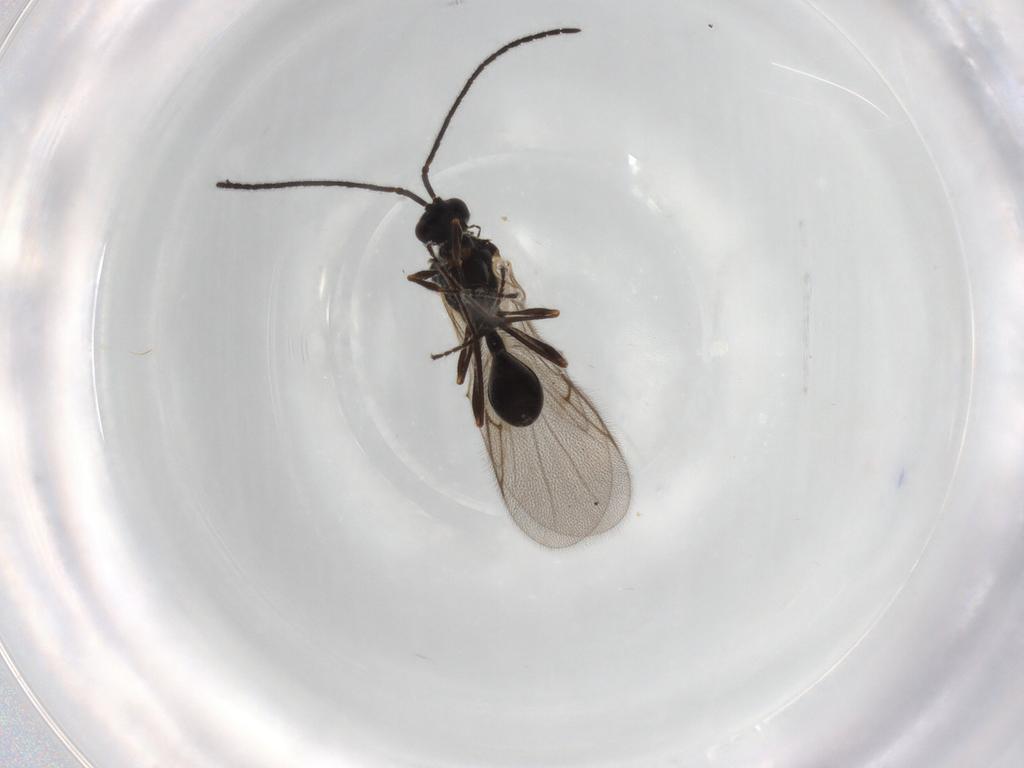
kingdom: Animalia
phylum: Arthropoda
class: Insecta
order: Hymenoptera
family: Diapriidae
